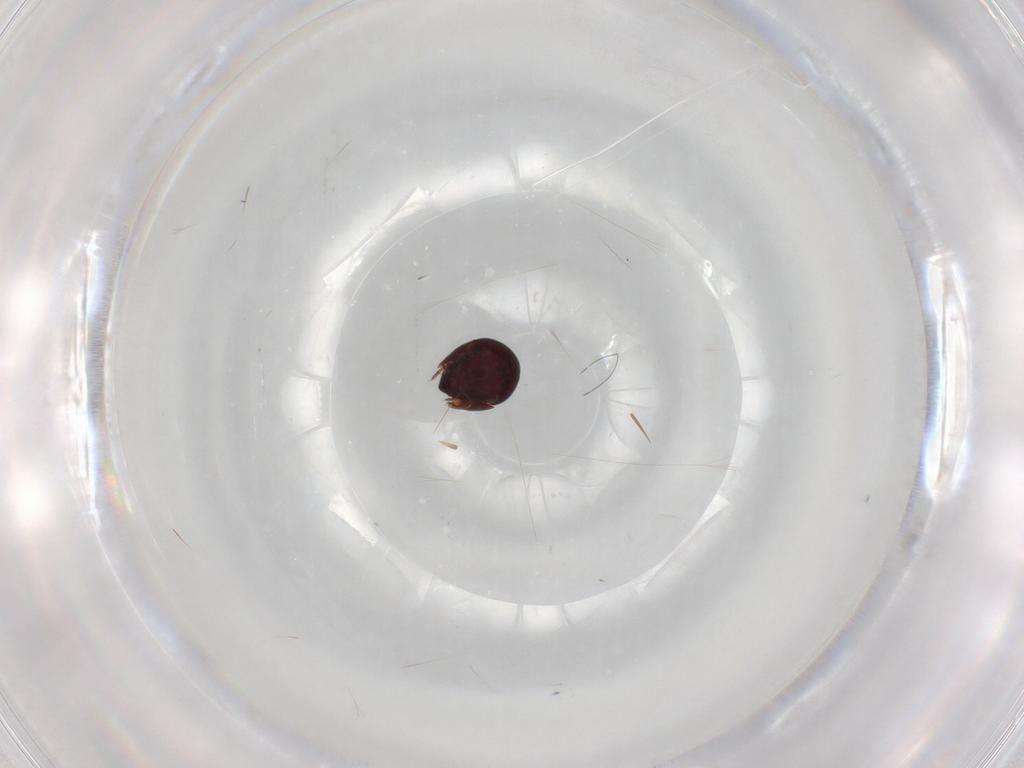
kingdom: Animalia
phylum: Arthropoda
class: Arachnida
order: Sarcoptiformes
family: Galumnidae
